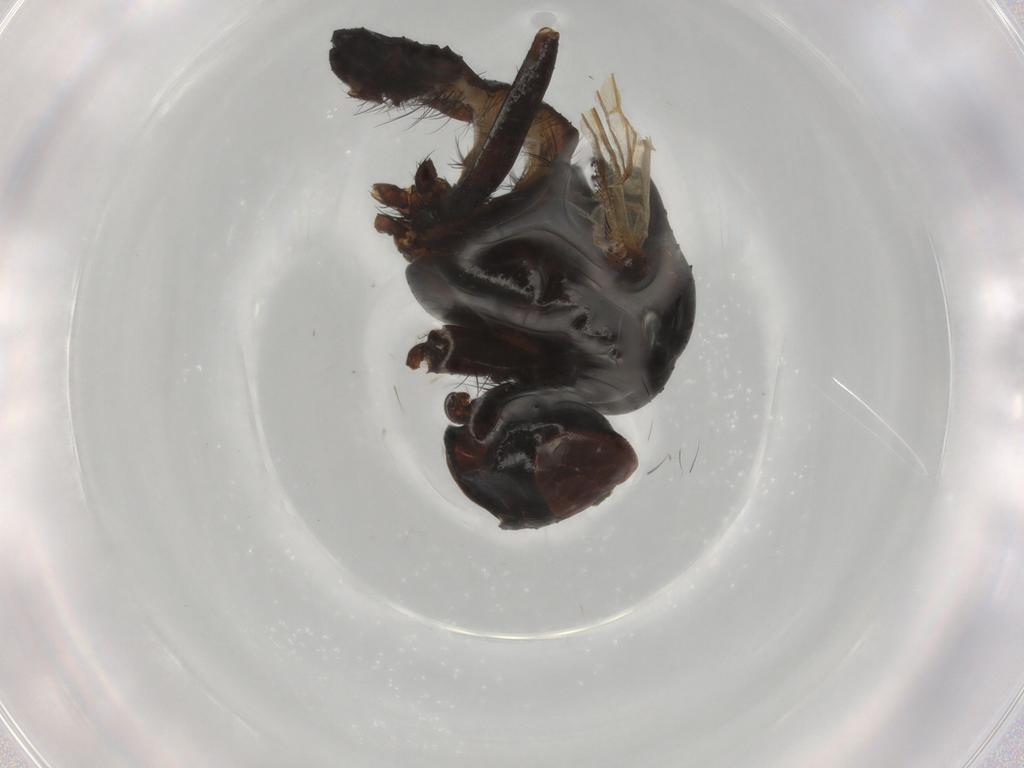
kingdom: Animalia
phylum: Arthropoda
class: Insecta
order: Diptera
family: Anthomyiidae
